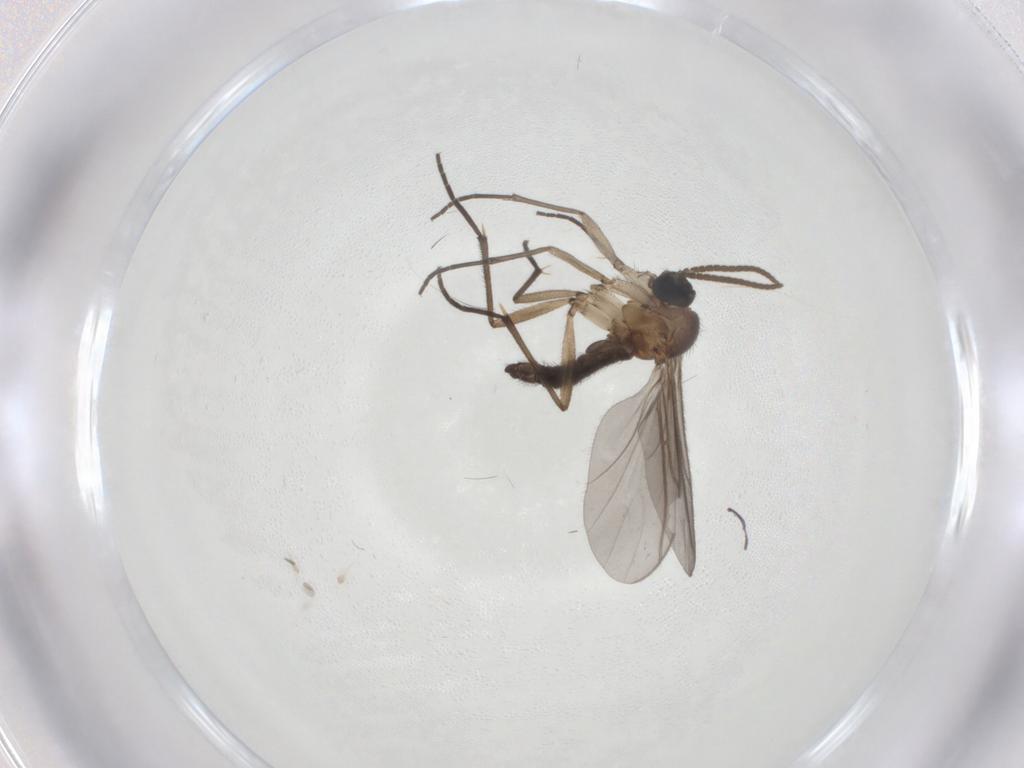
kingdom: Animalia
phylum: Arthropoda
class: Insecta
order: Diptera
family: Sciaridae
